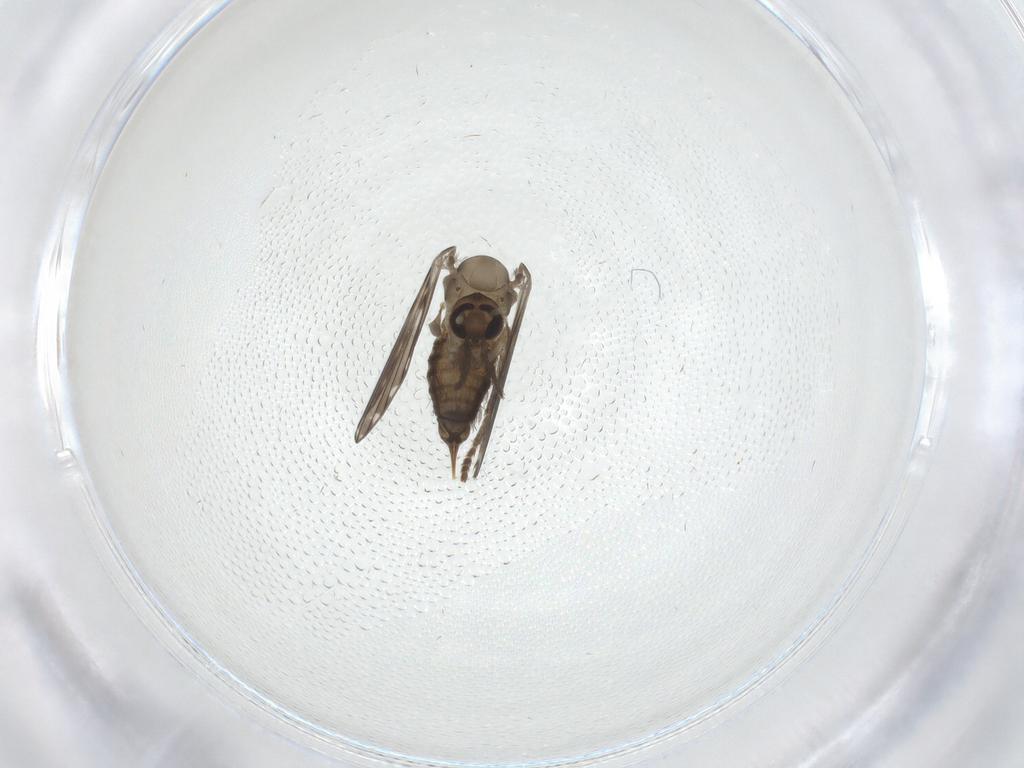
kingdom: Animalia
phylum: Arthropoda
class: Insecta
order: Diptera
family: Psychodidae
